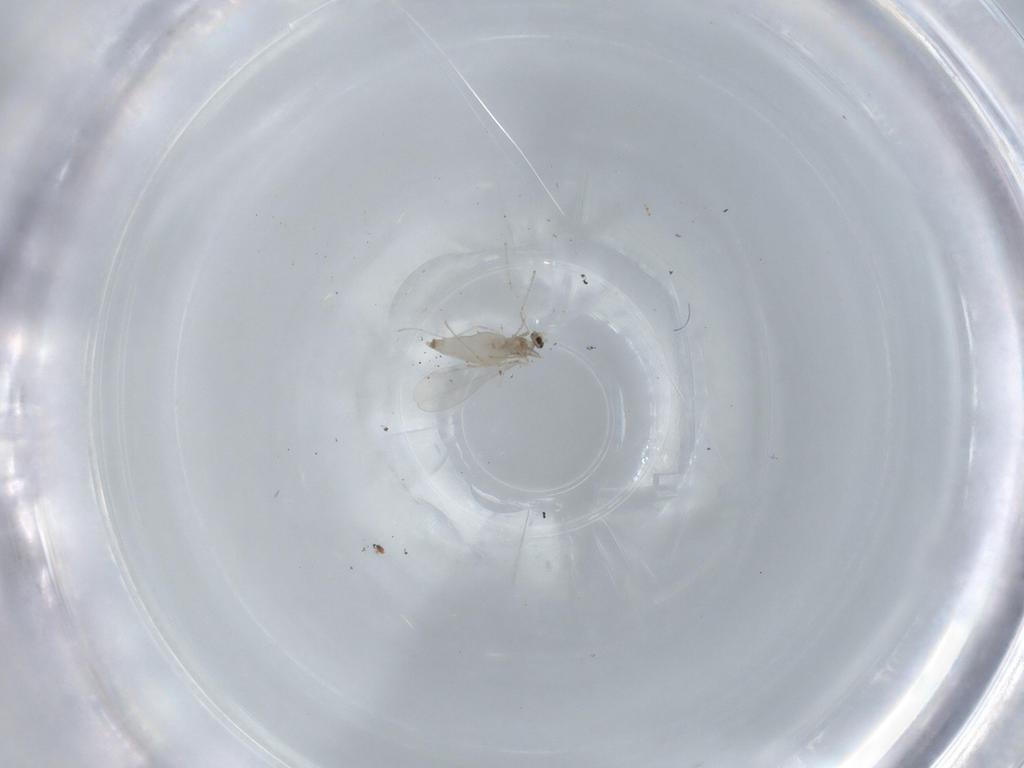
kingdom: Animalia
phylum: Arthropoda
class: Insecta
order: Diptera
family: Cecidomyiidae
